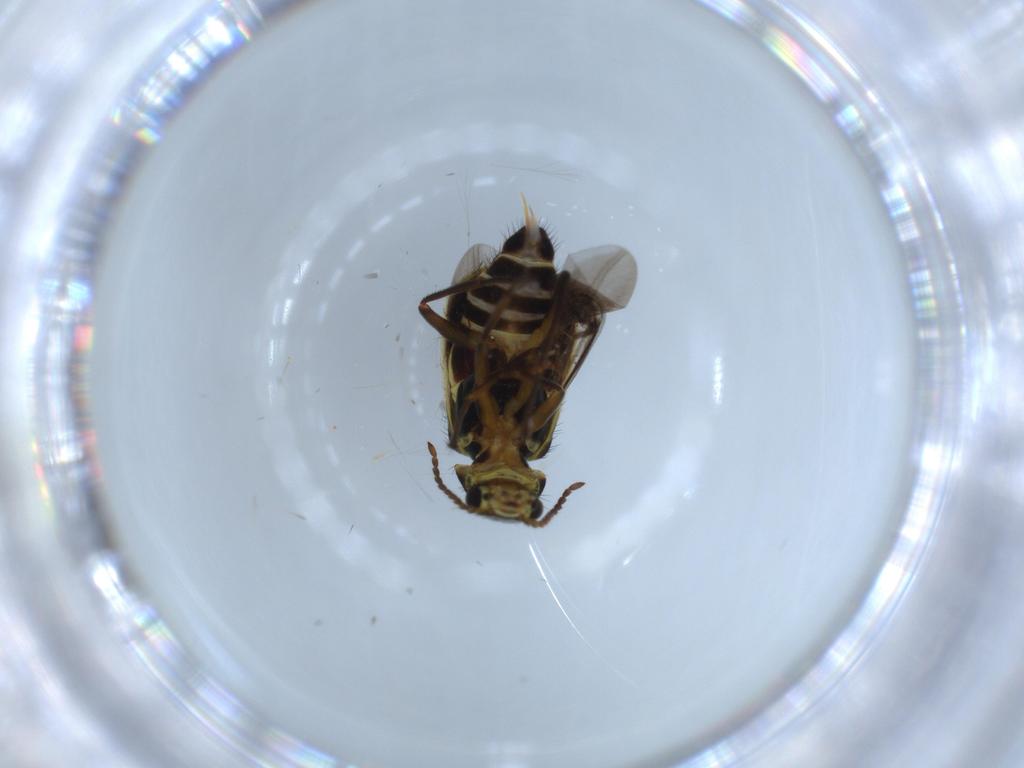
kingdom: Animalia
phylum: Arthropoda
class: Insecta
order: Coleoptera
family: Melyridae
